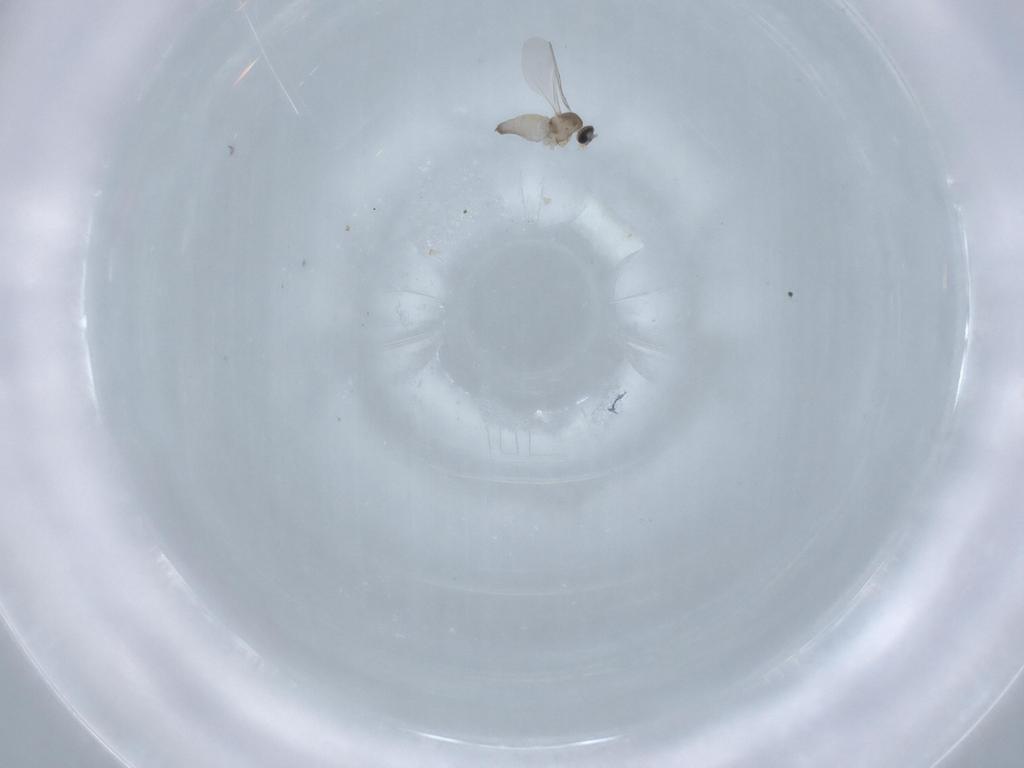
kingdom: Animalia
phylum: Arthropoda
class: Insecta
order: Diptera
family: Cecidomyiidae
